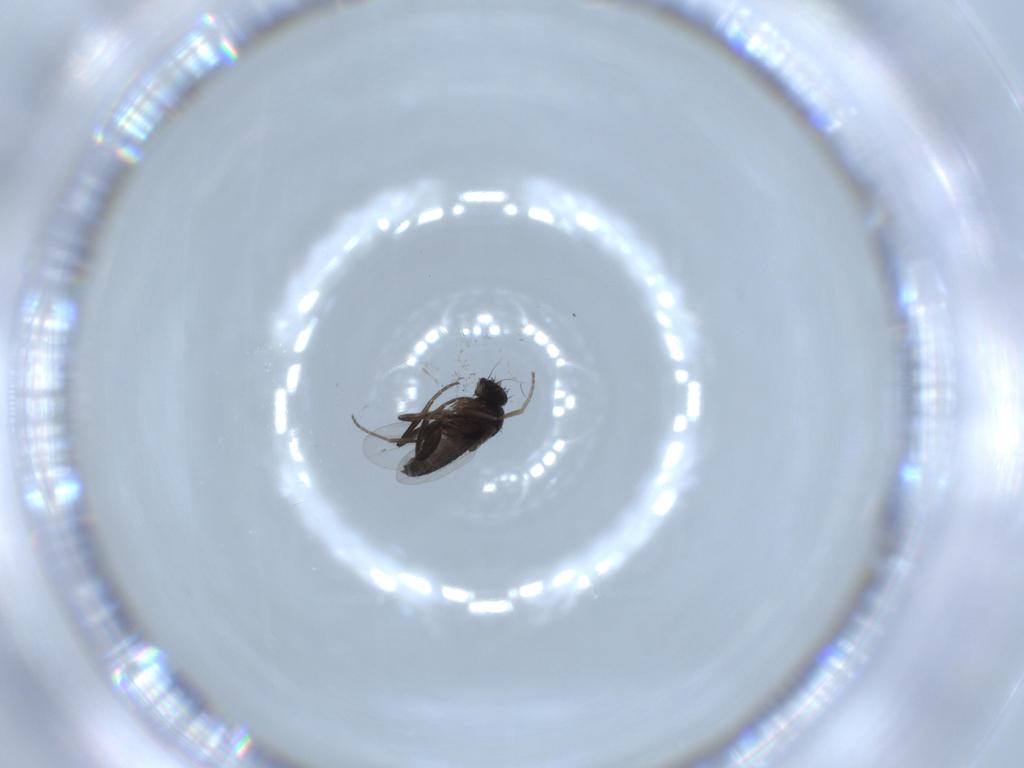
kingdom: Animalia
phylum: Arthropoda
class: Insecta
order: Diptera
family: Chironomidae
